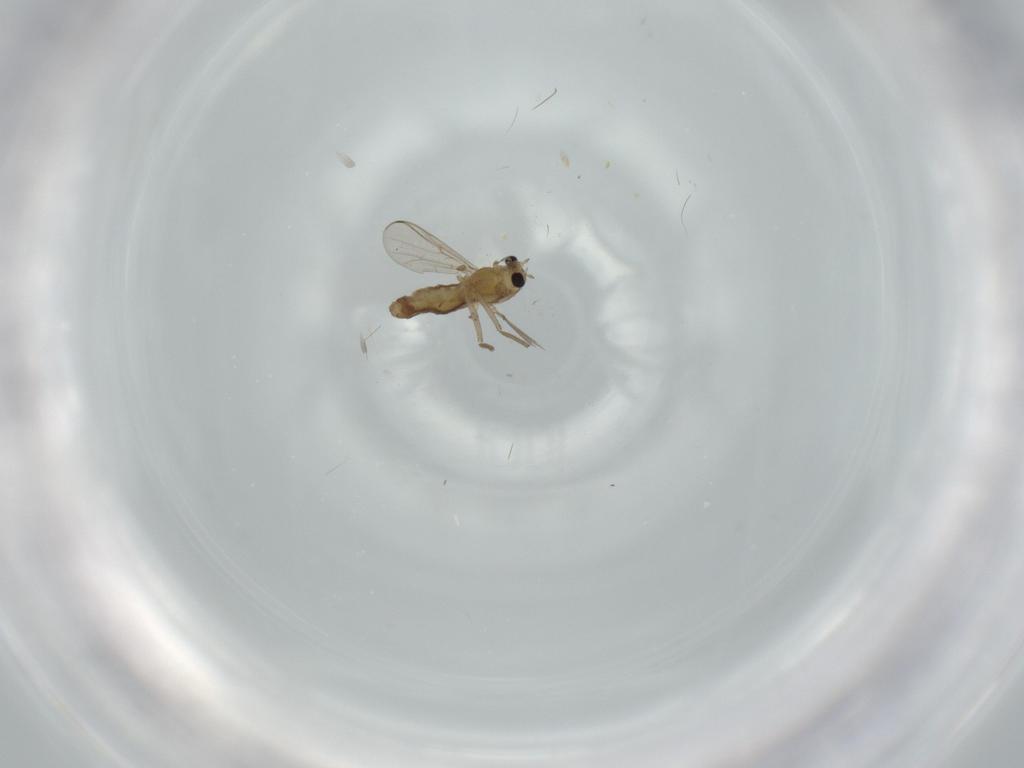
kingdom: Animalia
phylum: Arthropoda
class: Insecta
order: Diptera
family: Chironomidae
